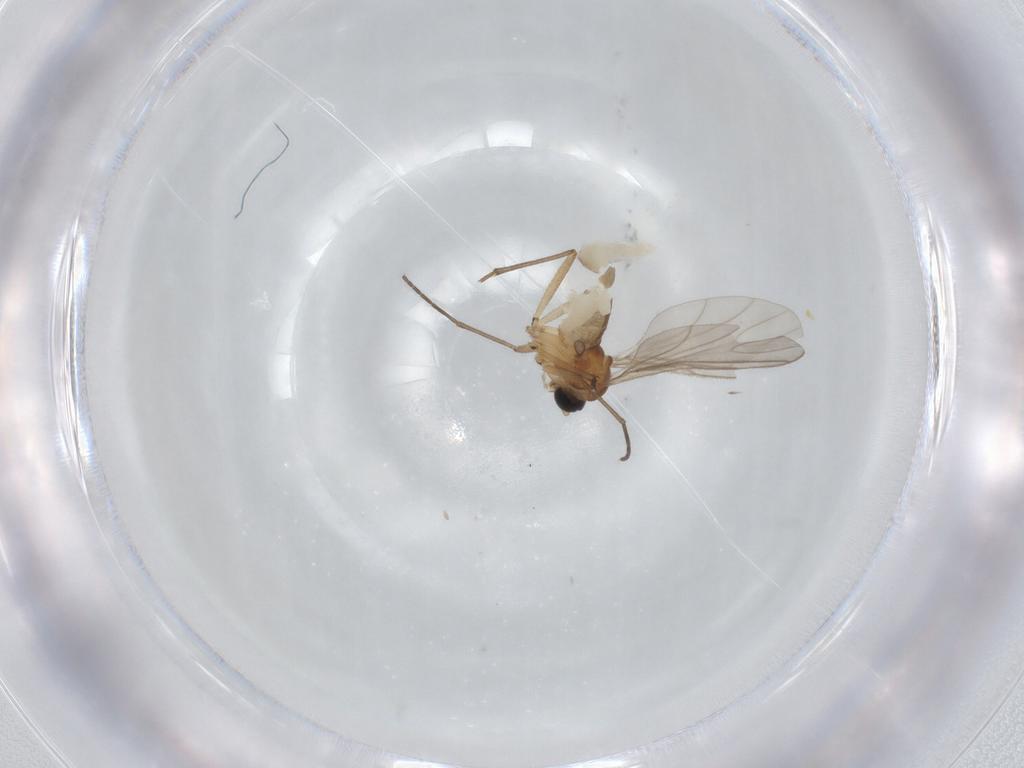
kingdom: Animalia
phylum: Arthropoda
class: Insecta
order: Diptera
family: Sciaridae
